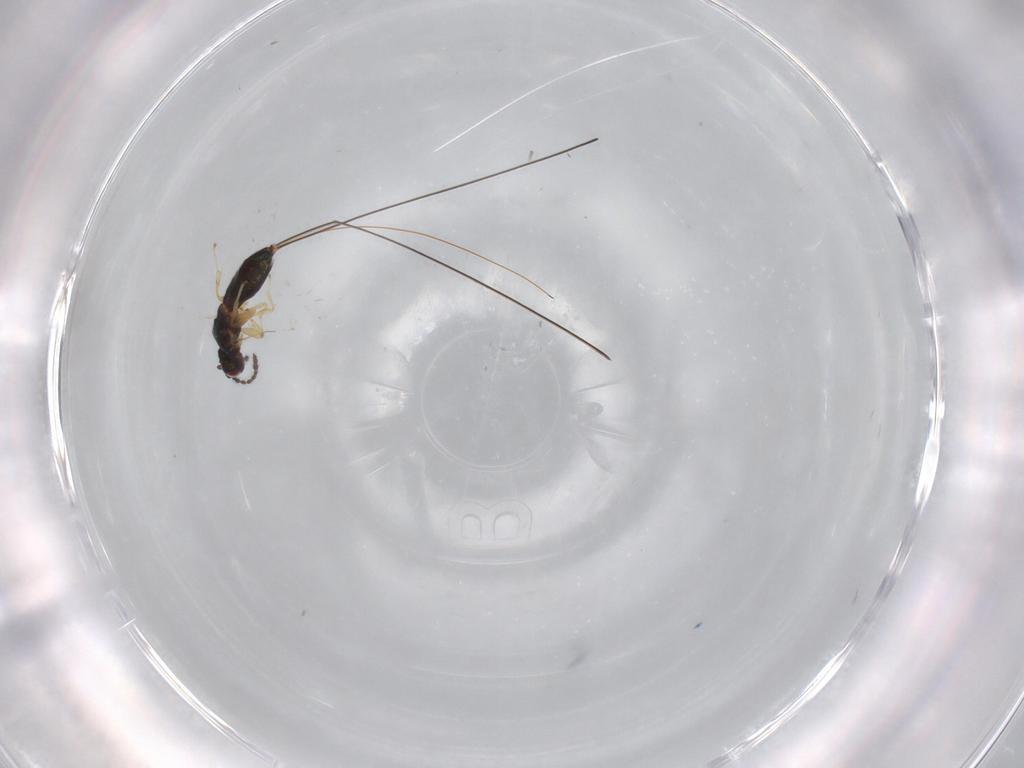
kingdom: Animalia
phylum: Arthropoda
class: Insecta
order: Hymenoptera
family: Pteromalidae
